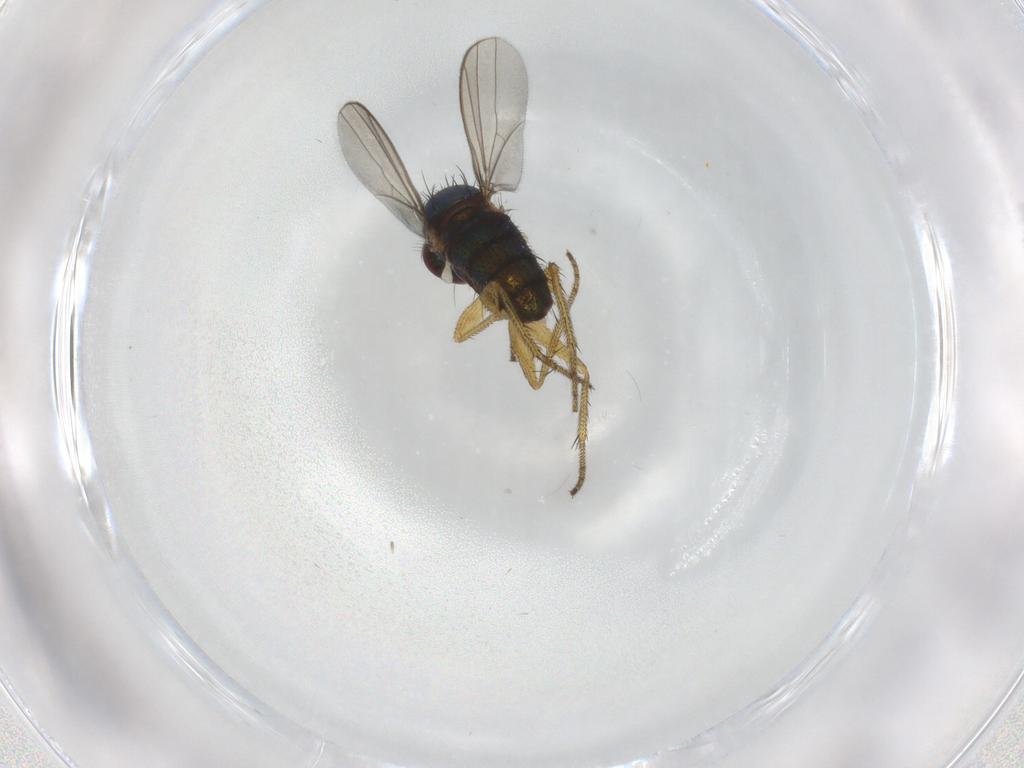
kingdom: Animalia
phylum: Arthropoda
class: Insecta
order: Diptera
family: Dolichopodidae
